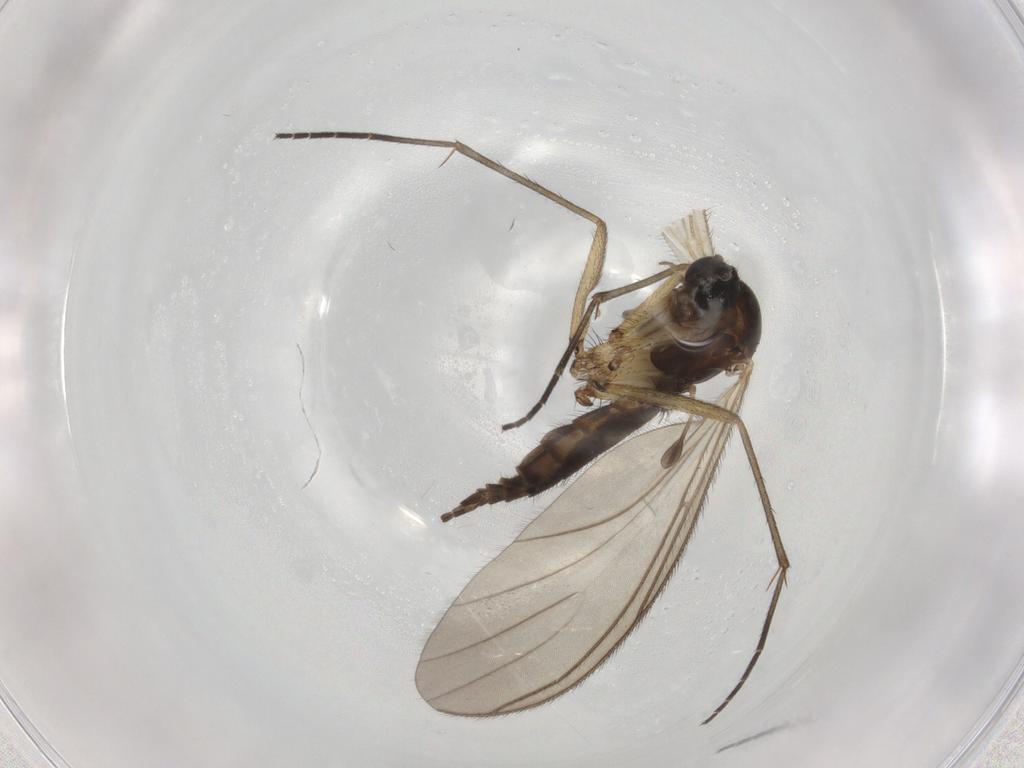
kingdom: Animalia
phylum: Arthropoda
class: Insecta
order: Diptera
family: Sciaridae
